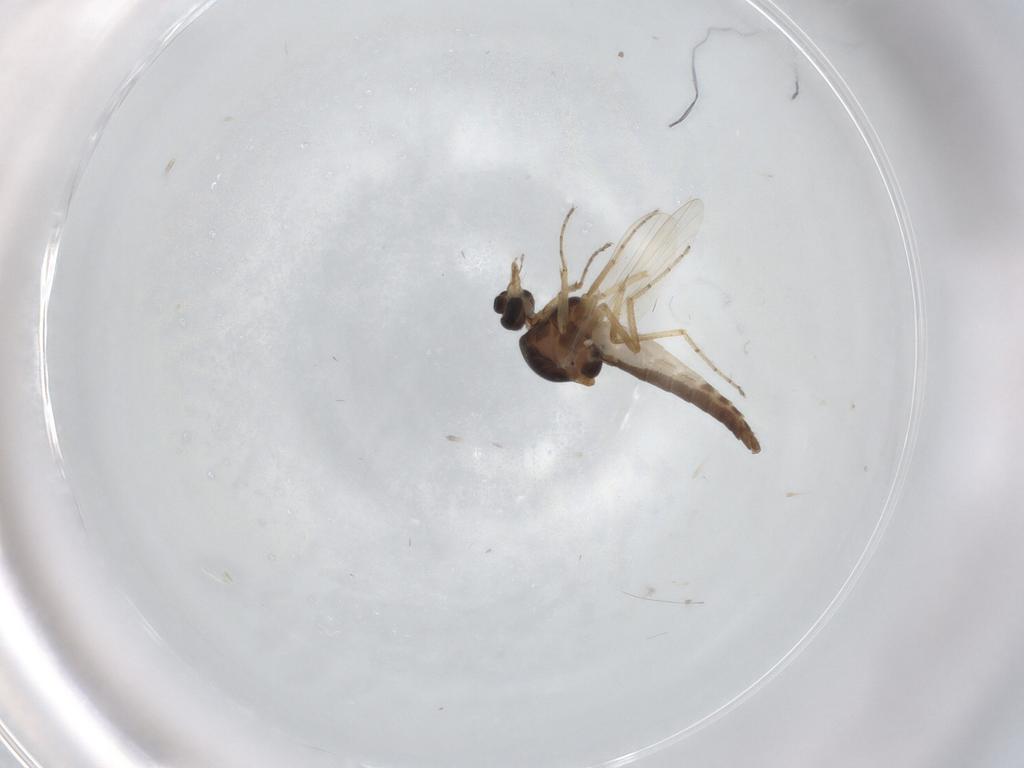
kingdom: Animalia
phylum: Arthropoda
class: Insecta
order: Diptera
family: Ceratopogonidae
